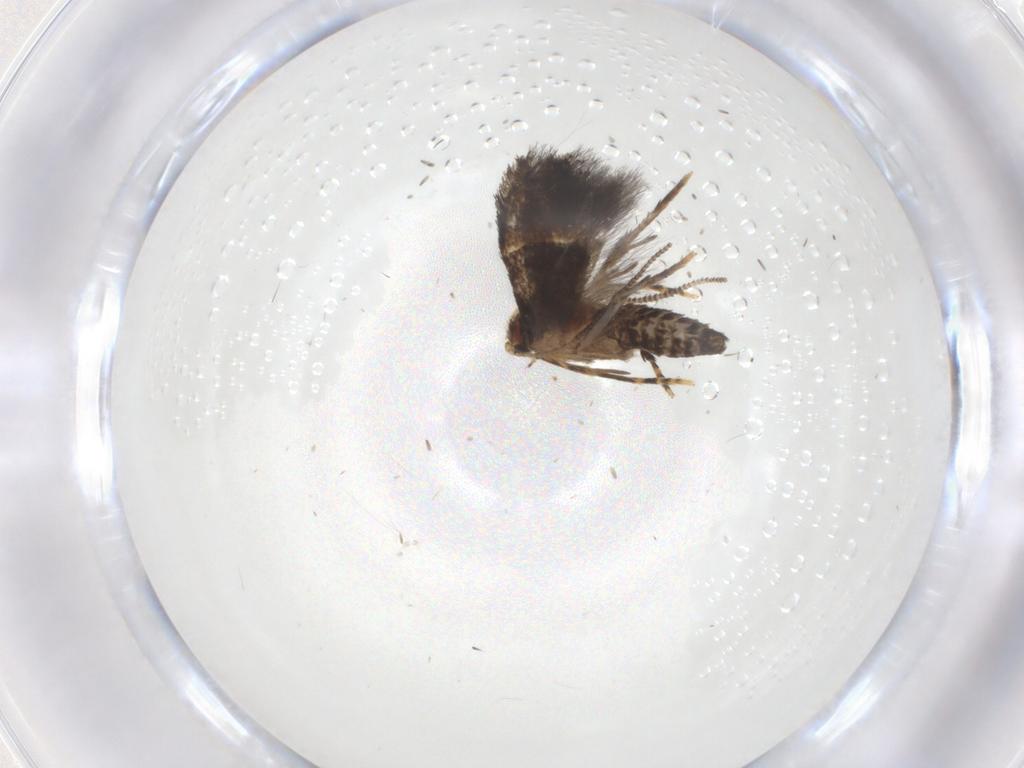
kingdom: Animalia
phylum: Arthropoda
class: Insecta
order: Lepidoptera
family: Tineidae
